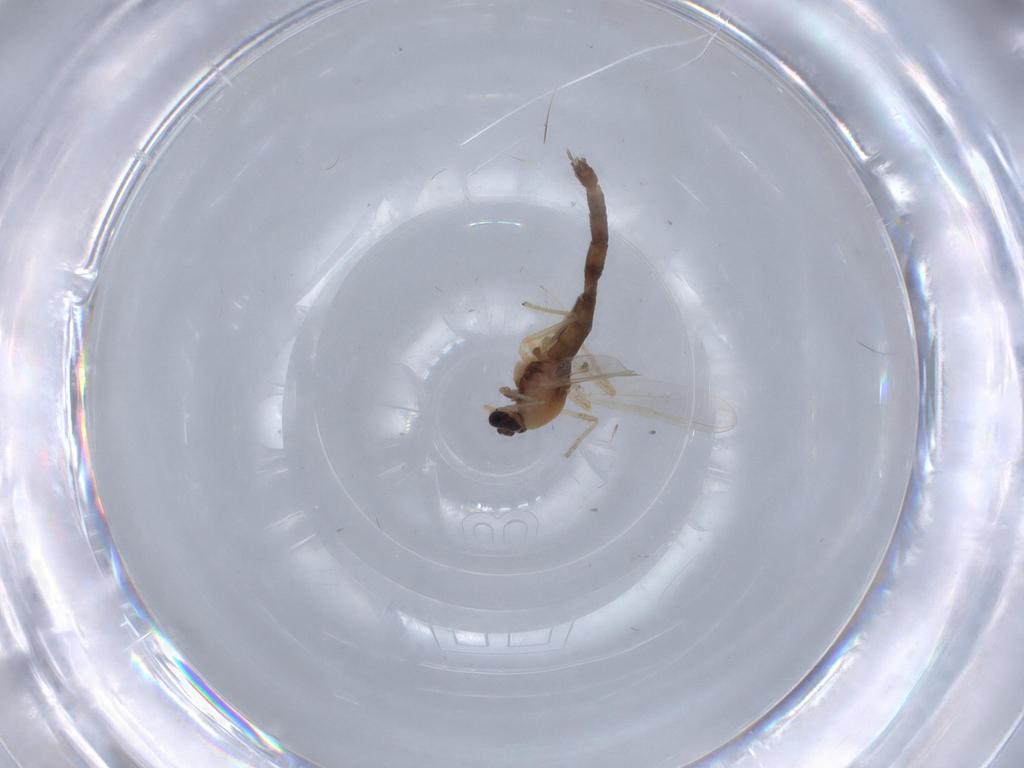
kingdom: Animalia
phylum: Arthropoda
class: Insecta
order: Diptera
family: Chironomidae
